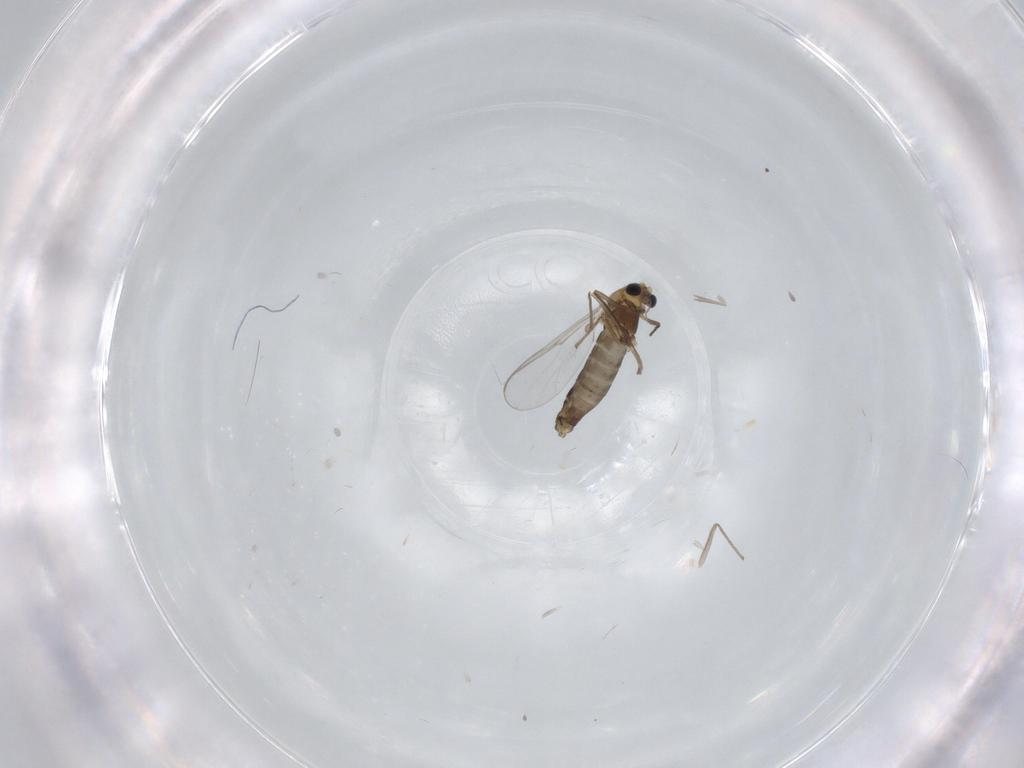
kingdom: Animalia
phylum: Arthropoda
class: Insecta
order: Diptera
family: Chironomidae
